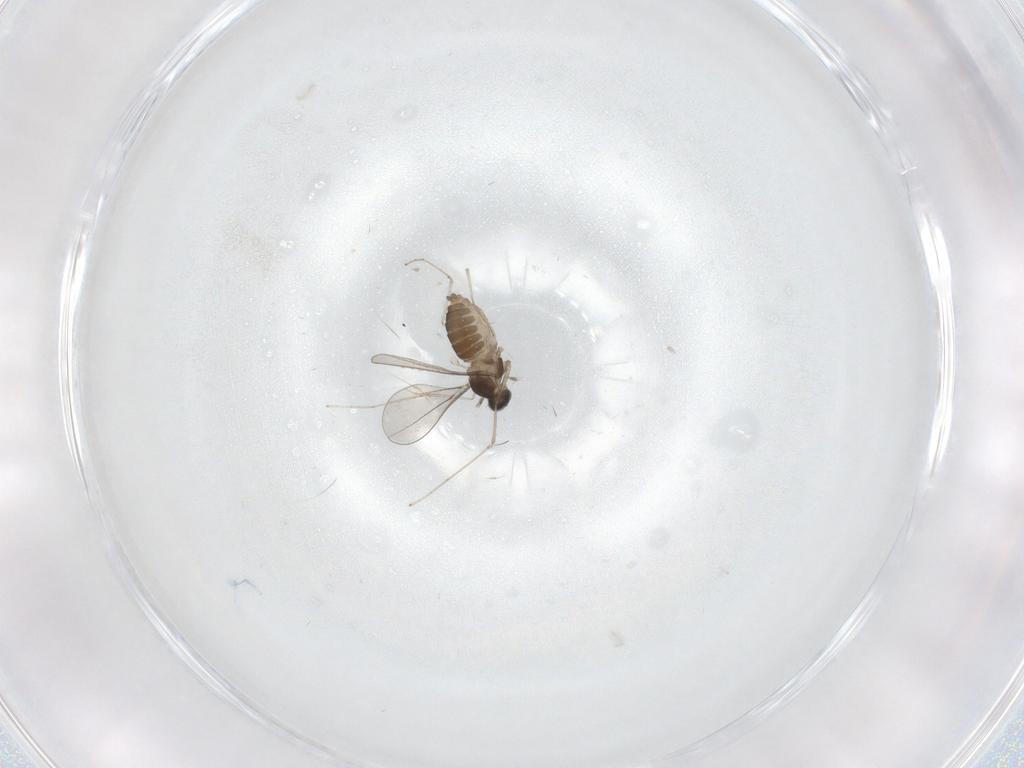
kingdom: Animalia
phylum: Arthropoda
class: Insecta
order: Diptera
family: Cecidomyiidae
